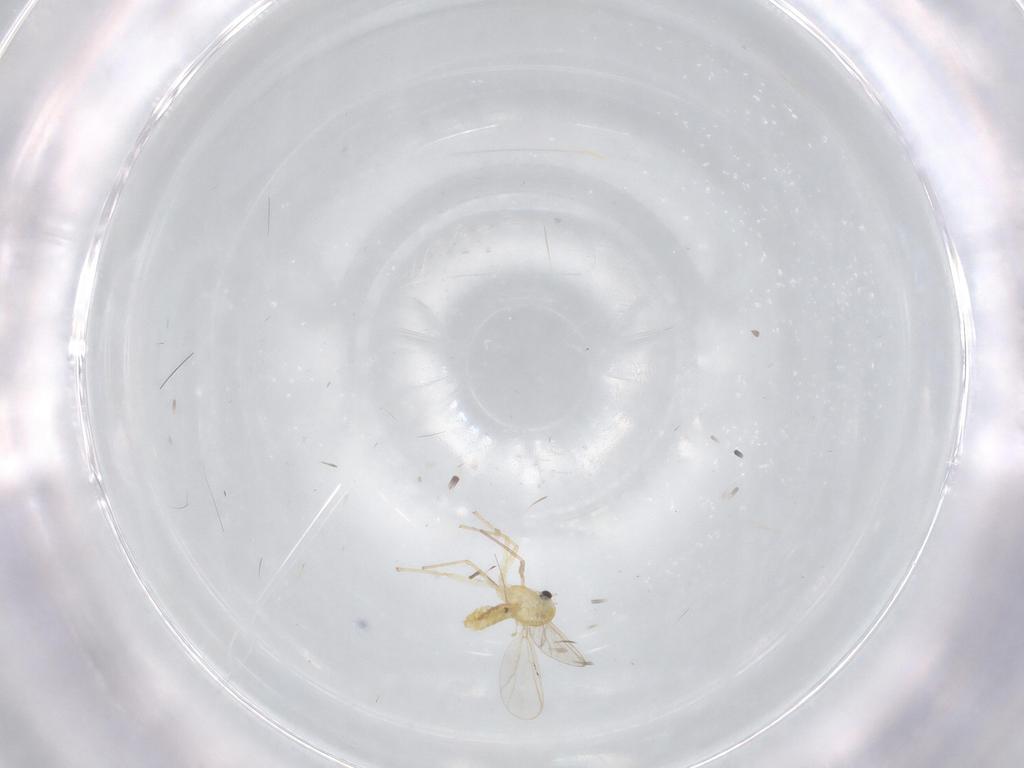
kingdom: Animalia
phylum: Arthropoda
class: Insecta
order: Diptera
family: Chironomidae
